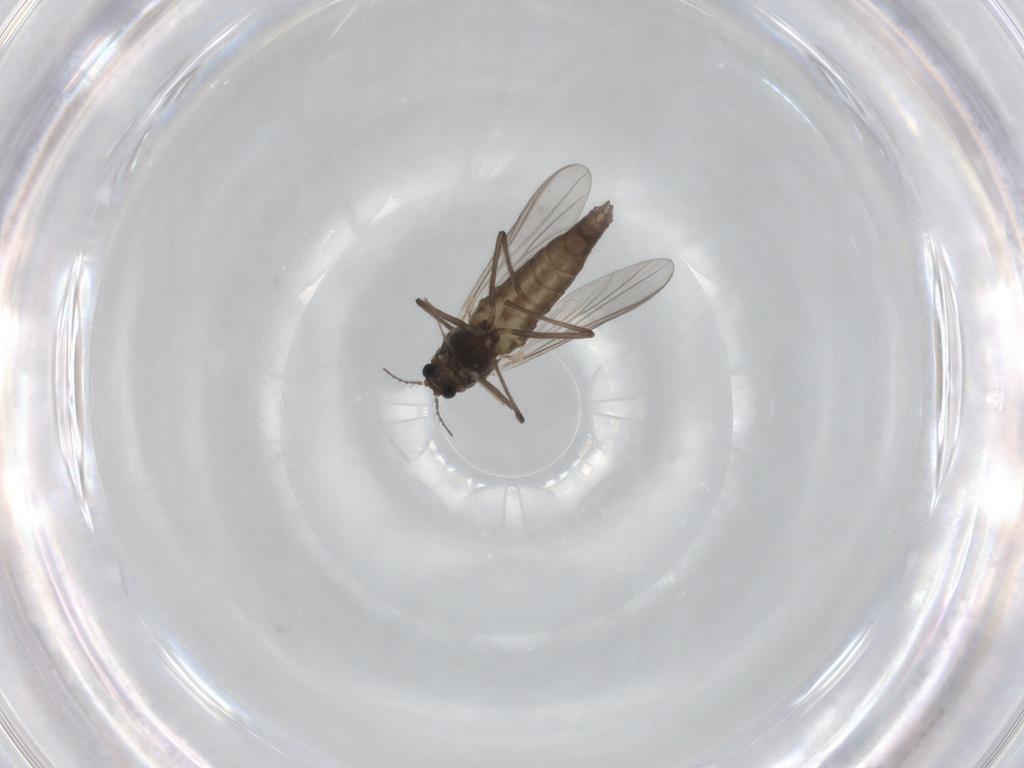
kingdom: Animalia
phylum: Arthropoda
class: Insecta
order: Diptera
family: Chironomidae
